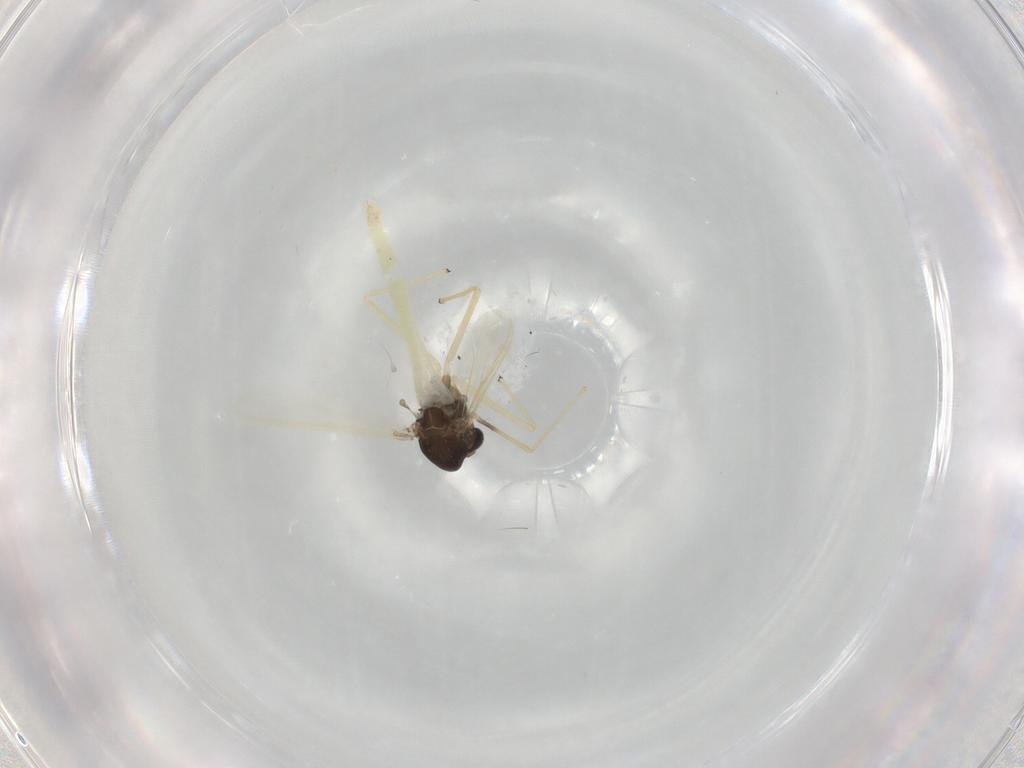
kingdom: Animalia
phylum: Arthropoda
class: Insecta
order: Diptera
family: Chironomidae
